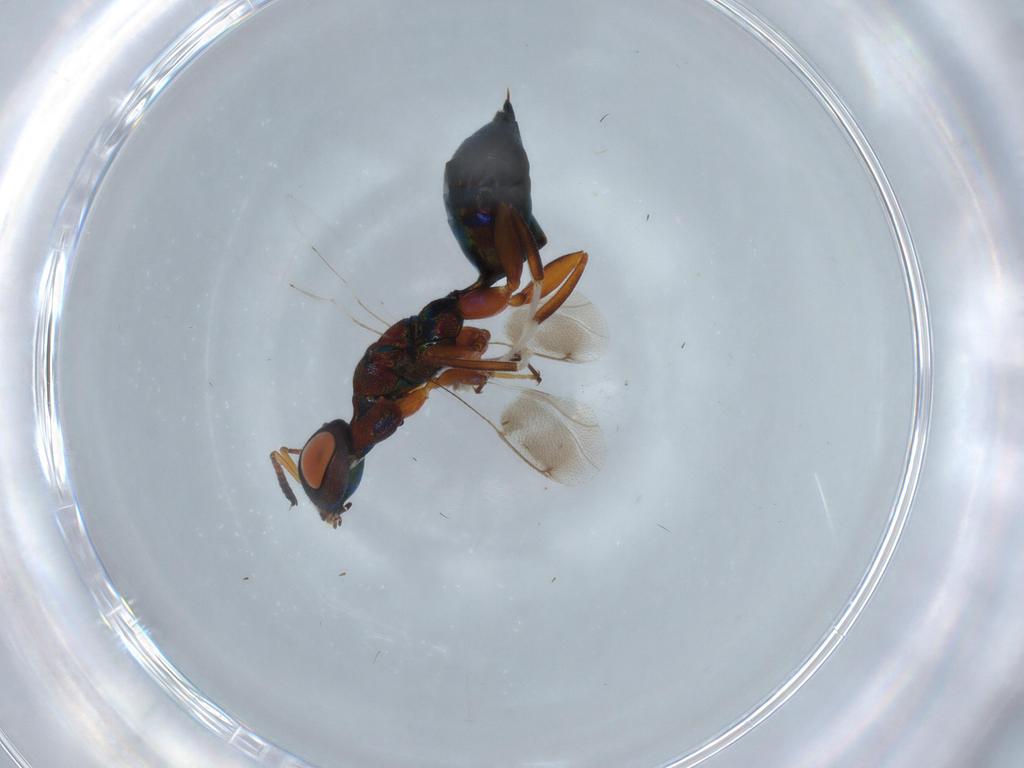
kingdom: Animalia
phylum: Arthropoda
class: Insecta
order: Hymenoptera
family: Cleonyminae
